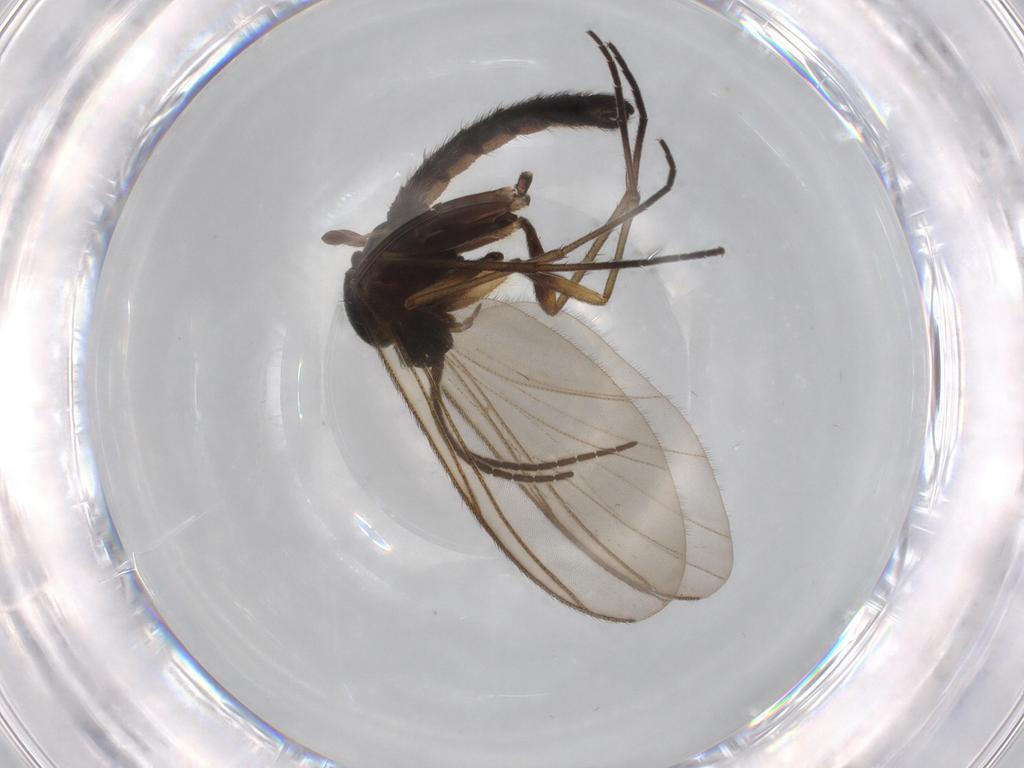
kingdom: Animalia
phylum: Arthropoda
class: Insecta
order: Diptera
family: Sciaridae
